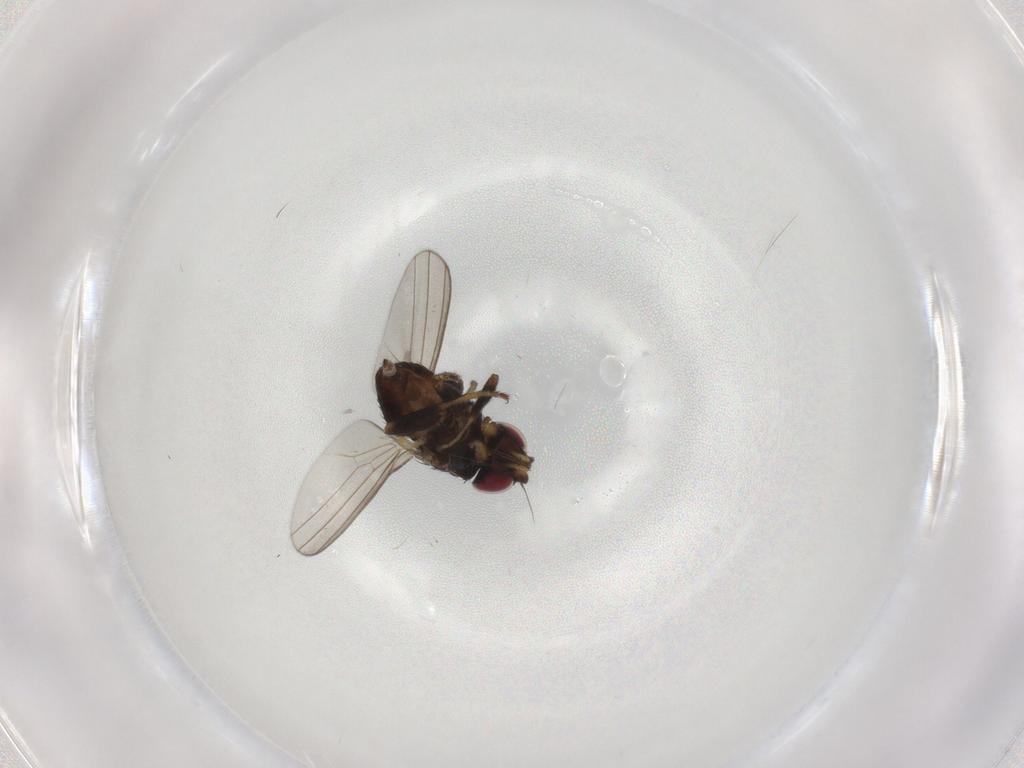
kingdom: Animalia
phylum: Arthropoda
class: Insecta
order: Diptera
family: Milichiidae
